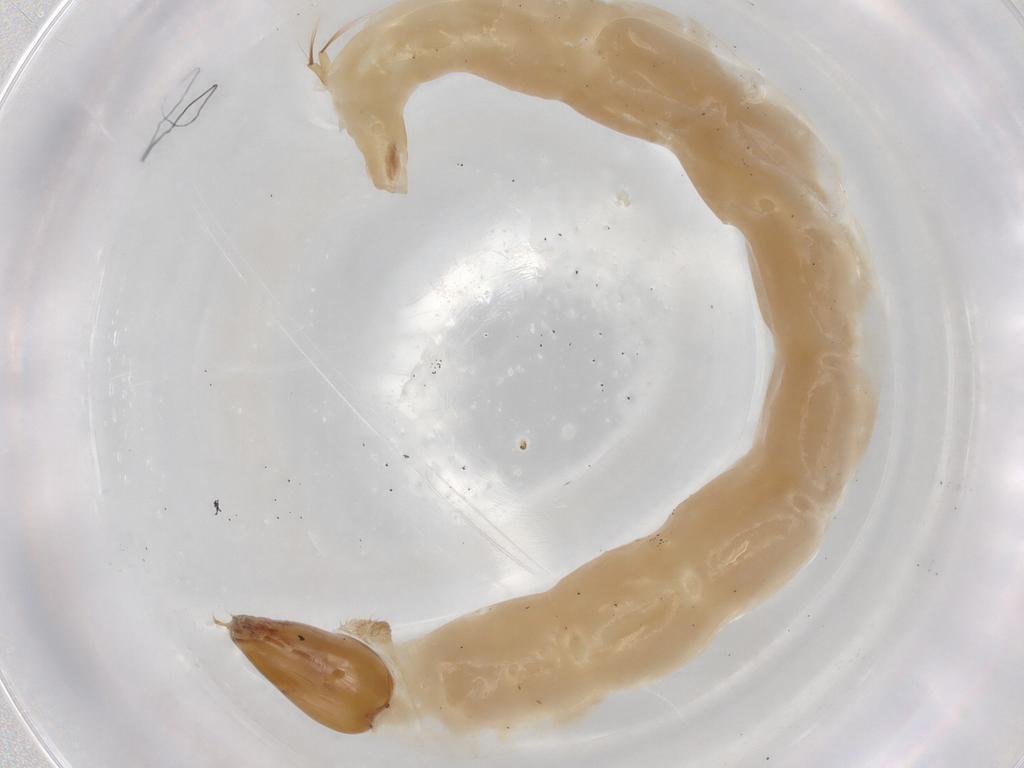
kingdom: Animalia
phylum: Arthropoda
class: Insecta
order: Diptera
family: Chironomidae
